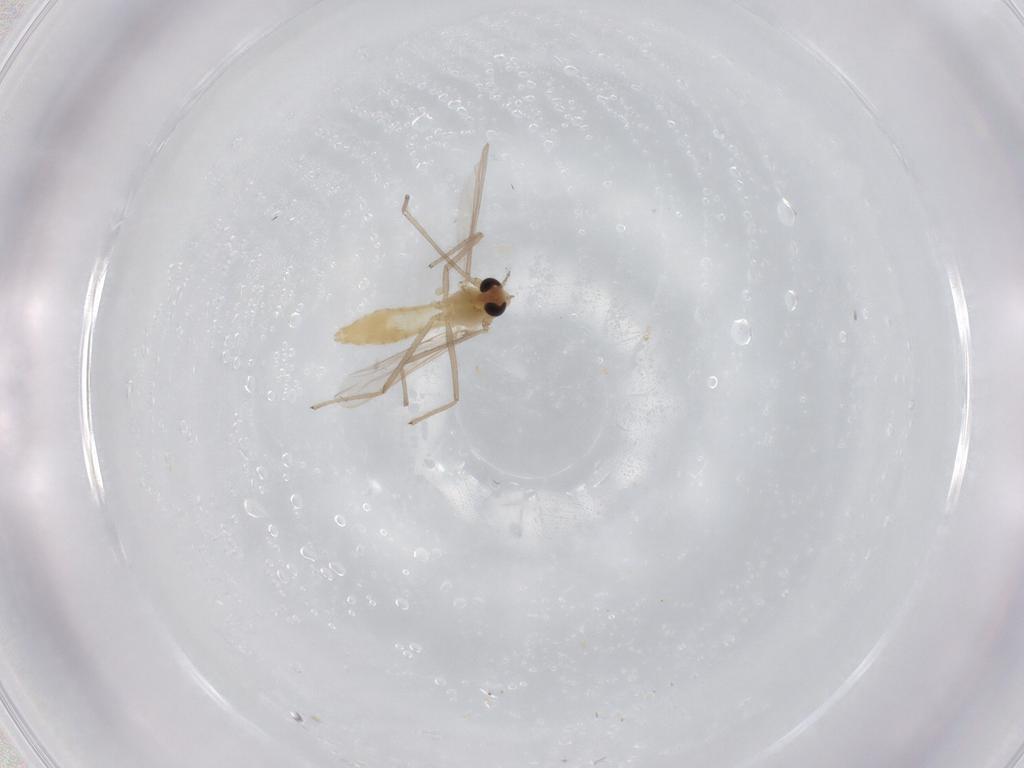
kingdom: Animalia
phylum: Arthropoda
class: Insecta
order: Diptera
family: Chironomidae
